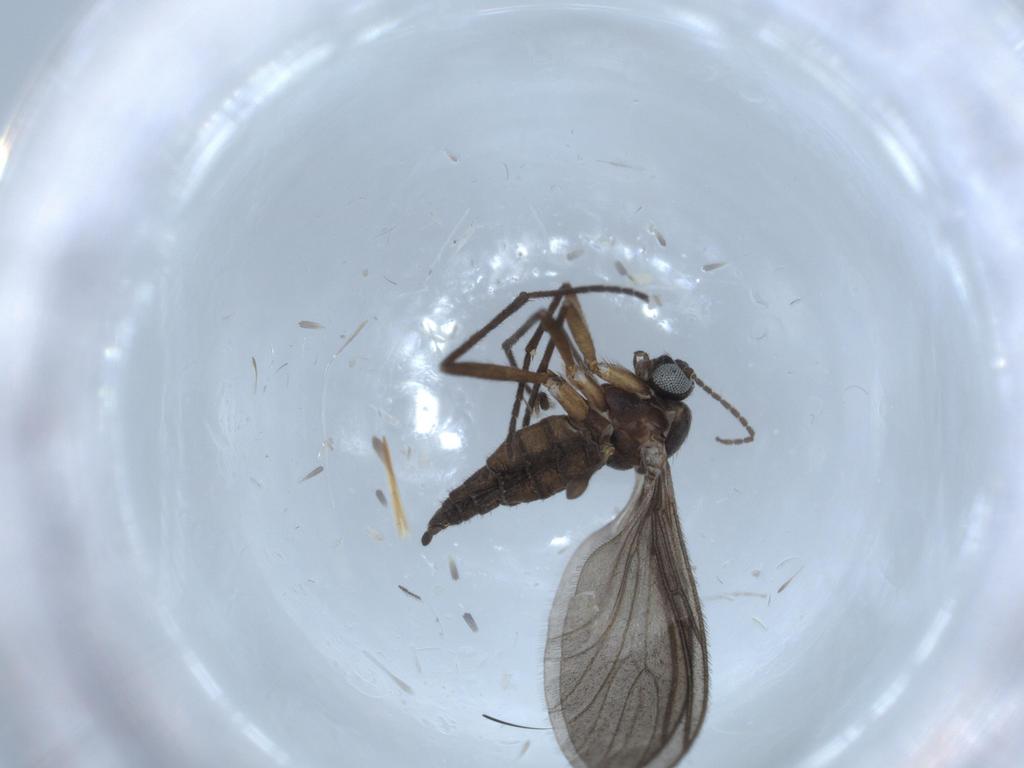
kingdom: Animalia
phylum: Arthropoda
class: Insecta
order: Diptera
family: Sciaridae
